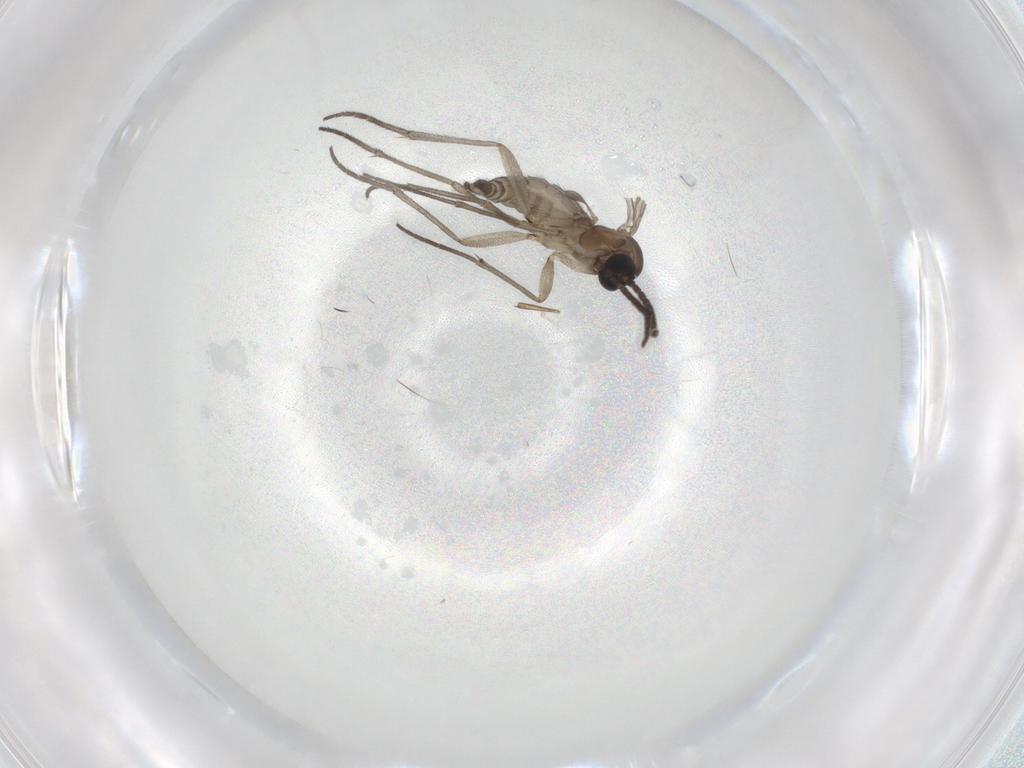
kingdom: Animalia
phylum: Arthropoda
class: Insecta
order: Diptera
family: Sciaridae
